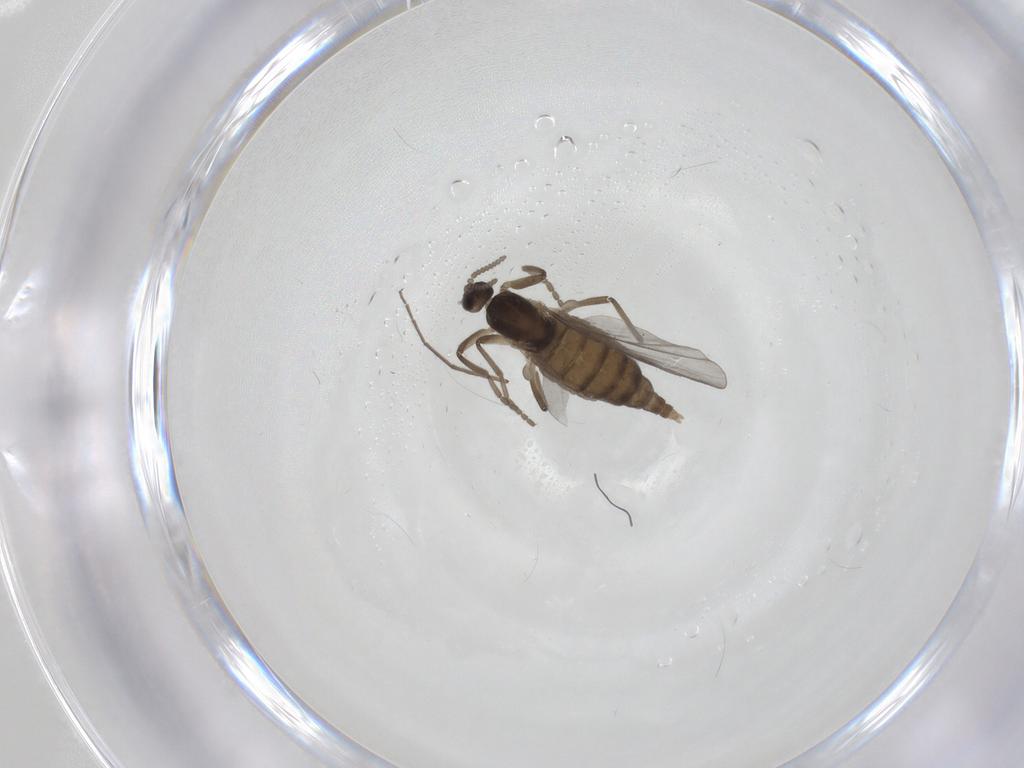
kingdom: Animalia
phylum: Arthropoda
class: Insecta
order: Diptera
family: Cecidomyiidae
